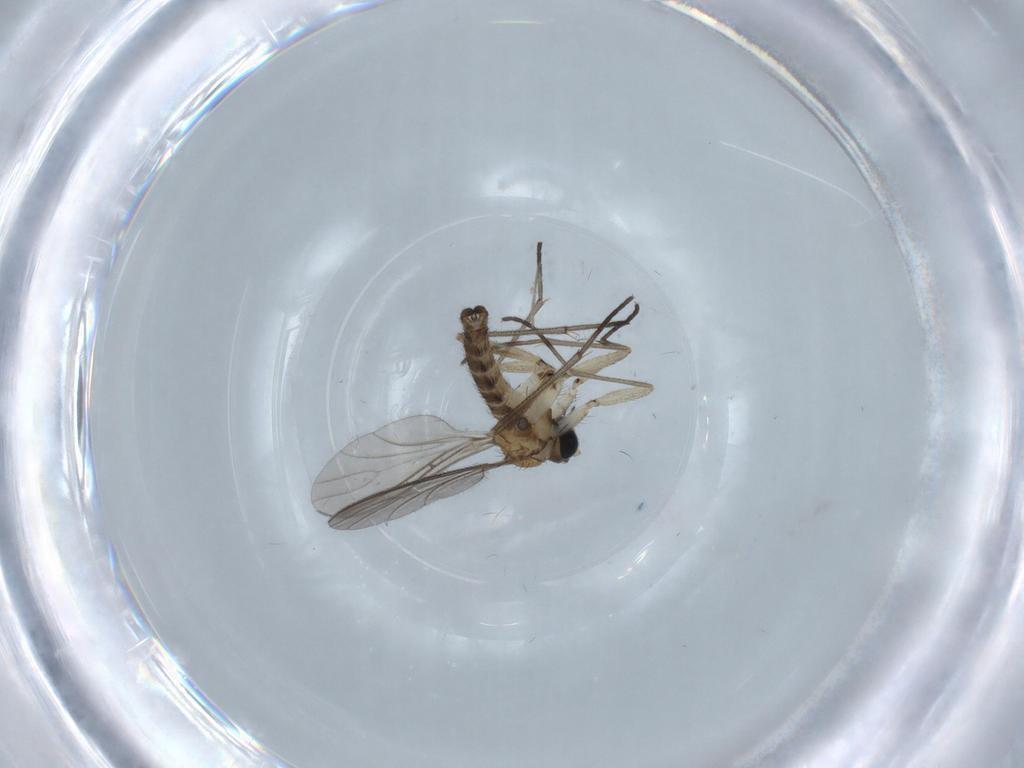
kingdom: Animalia
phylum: Arthropoda
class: Insecta
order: Diptera
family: Sciaridae
